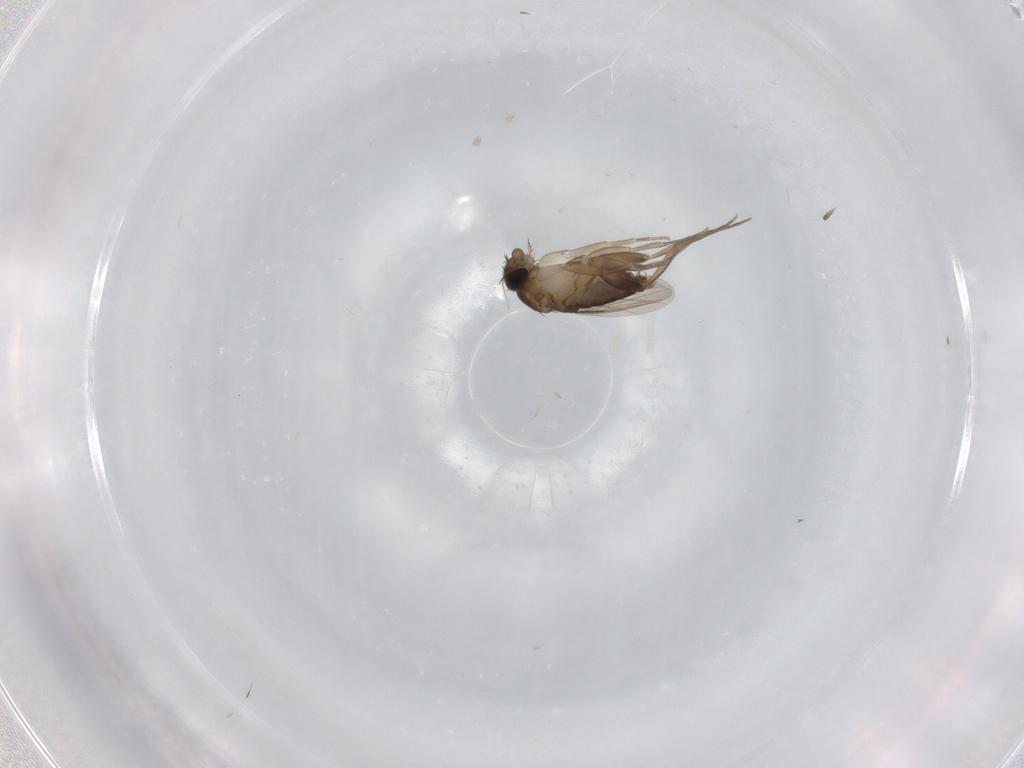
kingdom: Animalia
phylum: Arthropoda
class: Insecta
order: Diptera
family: Phoridae
